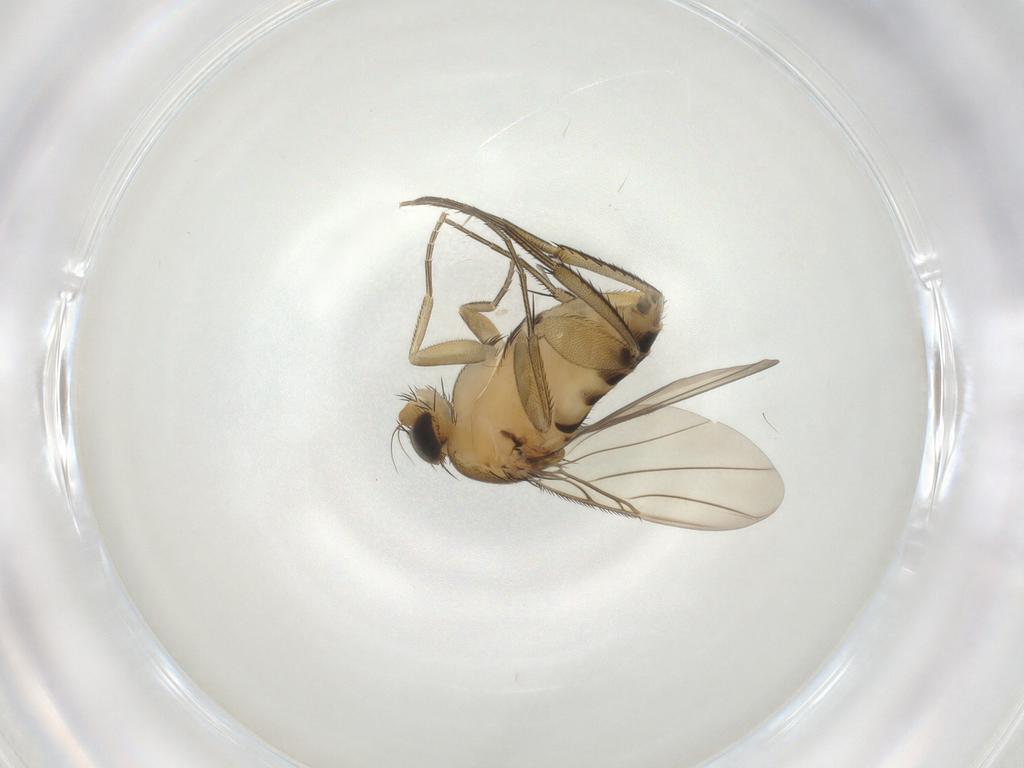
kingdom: Animalia
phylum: Arthropoda
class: Insecta
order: Diptera
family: Phoridae
